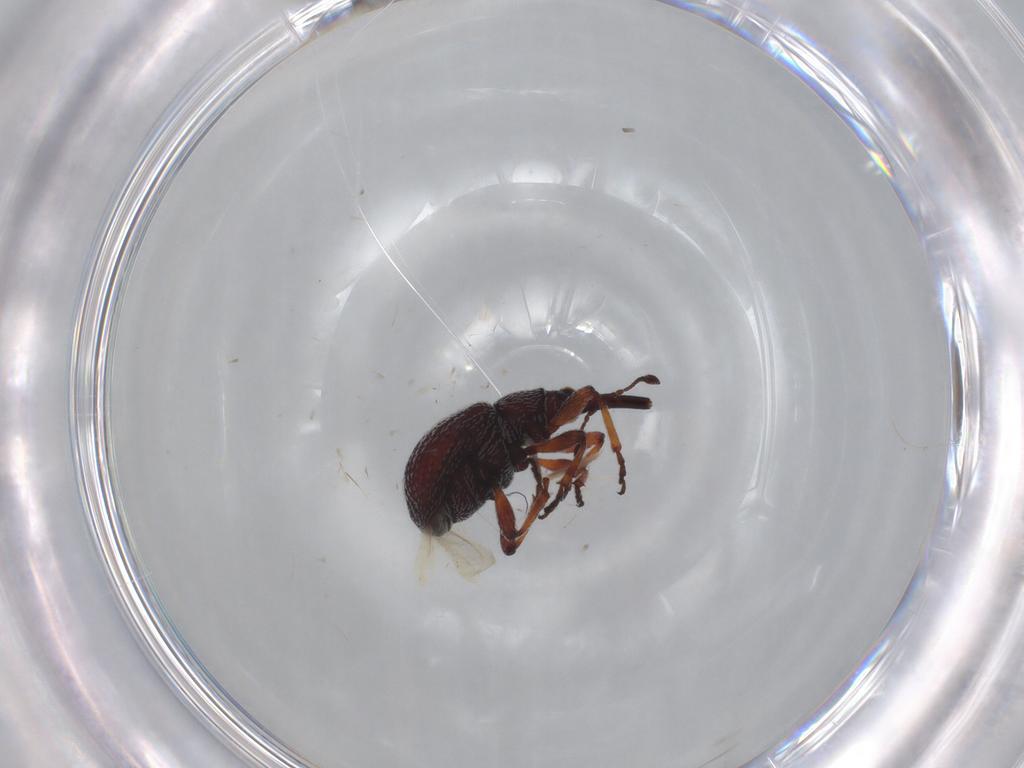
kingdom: Animalia
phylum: Arthropoda
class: Insecta
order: Coleoptera
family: Brentidae
